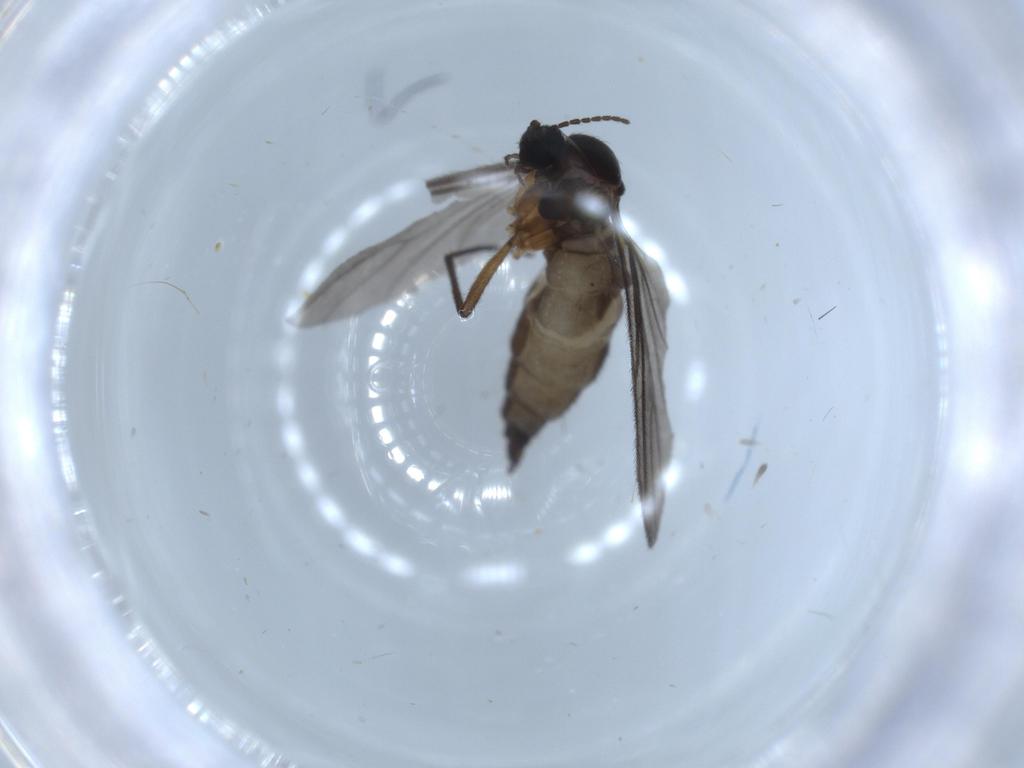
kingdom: Animalia
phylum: Arthropoda
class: Insecta
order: Diptera
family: Sciaridae
